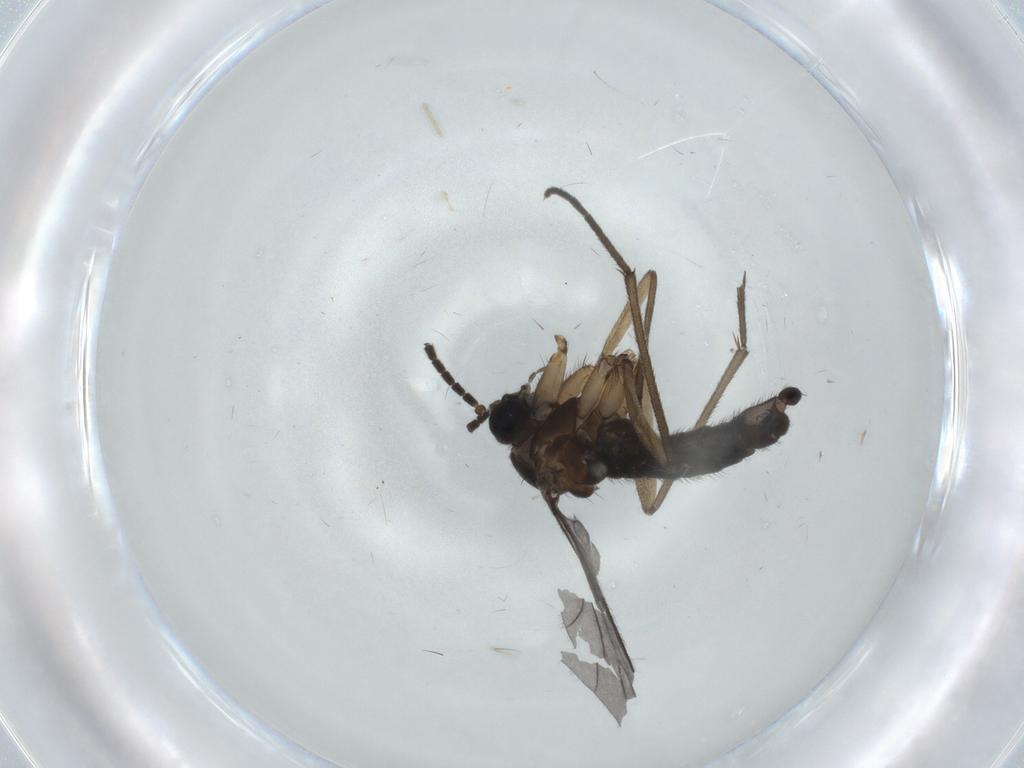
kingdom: Animalia
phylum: Arthropoda
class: Insecta
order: Diptera
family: Sciaridae
